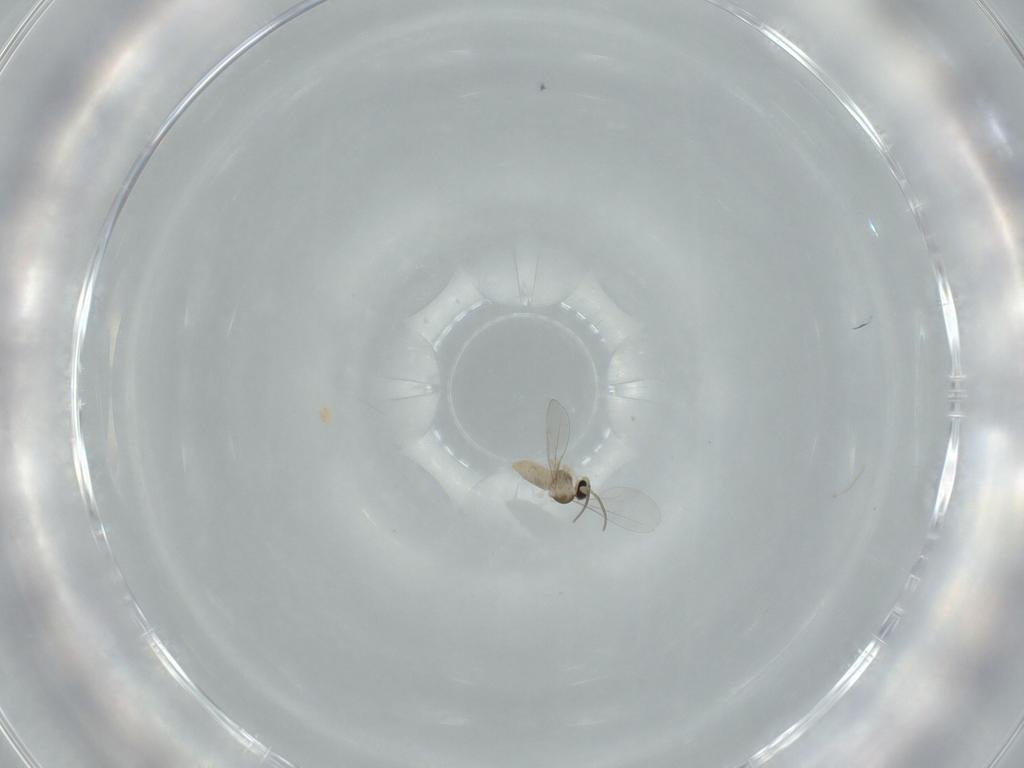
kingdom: Animalia
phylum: Arthropoda
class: Insecta
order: Diptera
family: Cecidomyiidae
